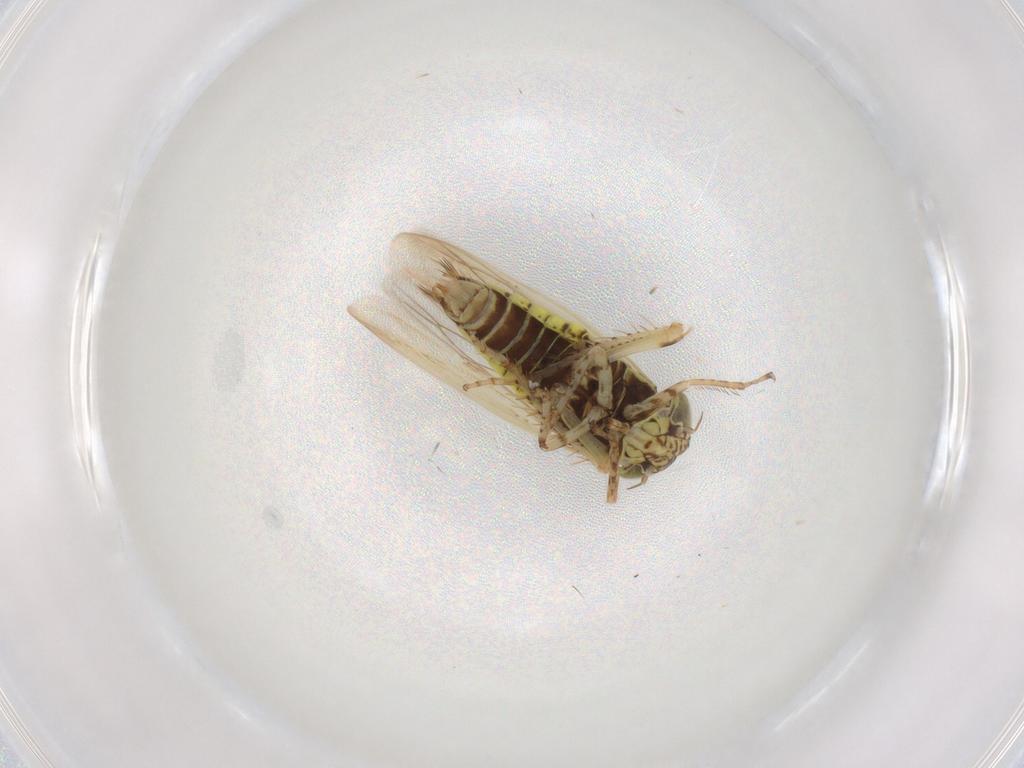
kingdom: Animalia
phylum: Arthropoda
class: Insecta
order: Hemiptera
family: Cicadellidae
